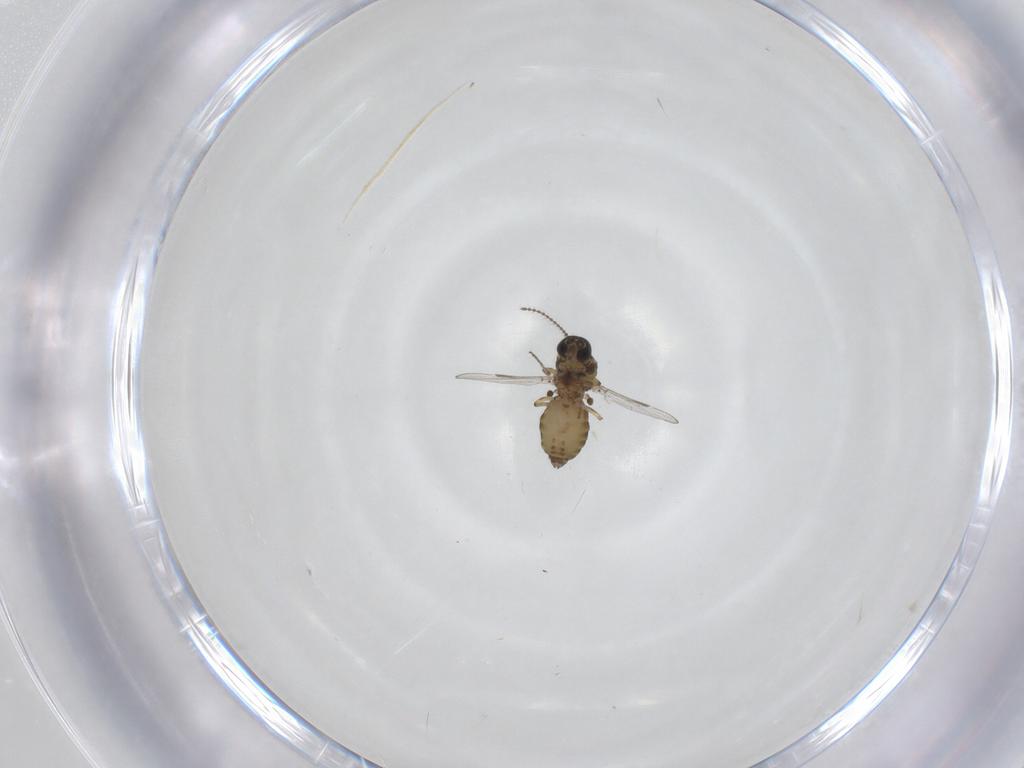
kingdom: Animalia
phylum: Arthropoda
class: Insecta
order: Diptera
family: Ceratopogonidae
